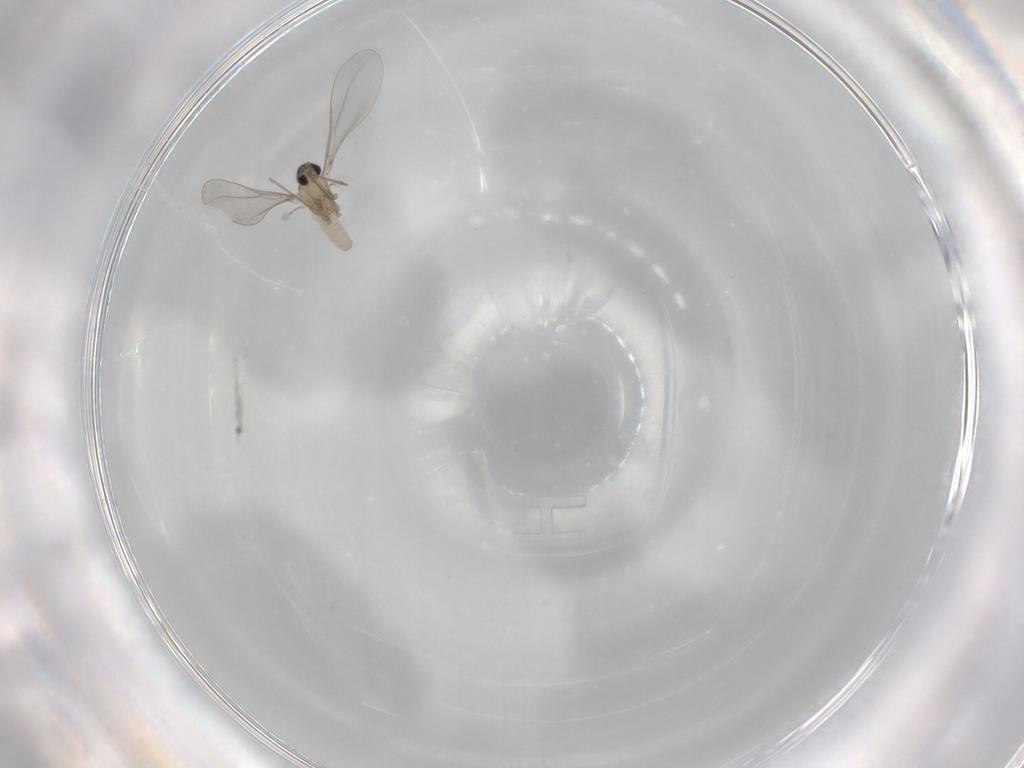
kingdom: Animalia
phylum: Arthropoda
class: Insecta
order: Diptera
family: Cecidomyiidae
